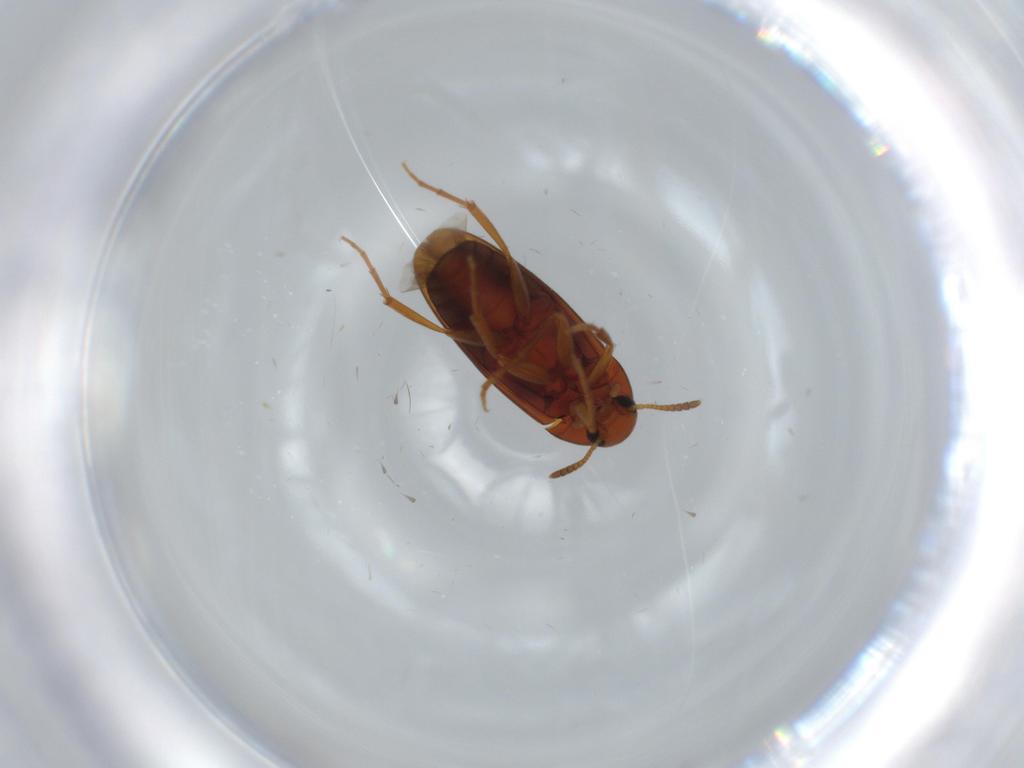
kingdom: Animalia
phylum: Arthropoda
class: Insecta
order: Coleoptera
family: Scraptiidae
